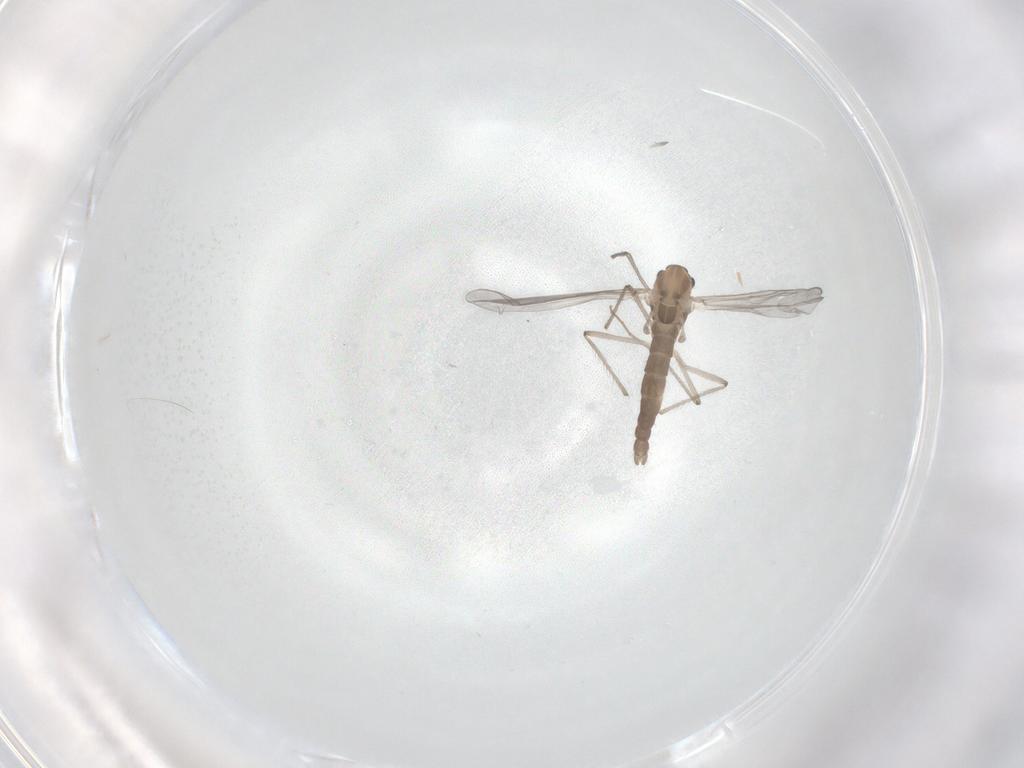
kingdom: Animalia
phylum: Arthropoda
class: Insecta
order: Diptera
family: Chironomidae
